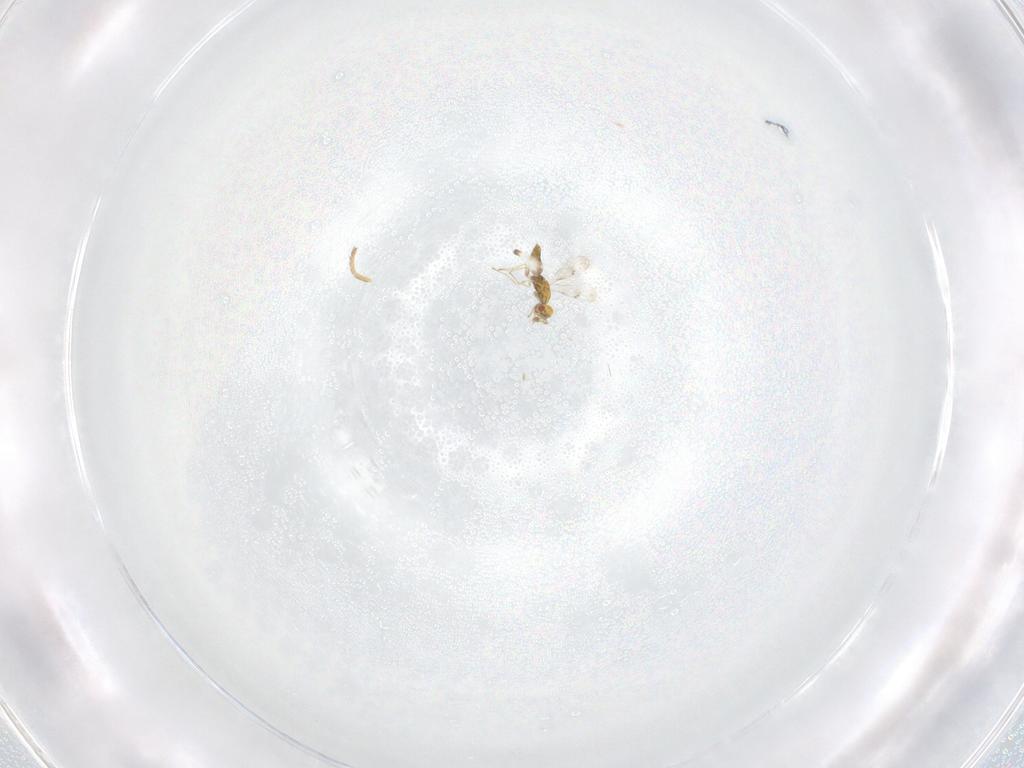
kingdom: Animalia
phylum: Arthropoda
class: Insecta
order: Hymenoptera
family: Eulophidae
